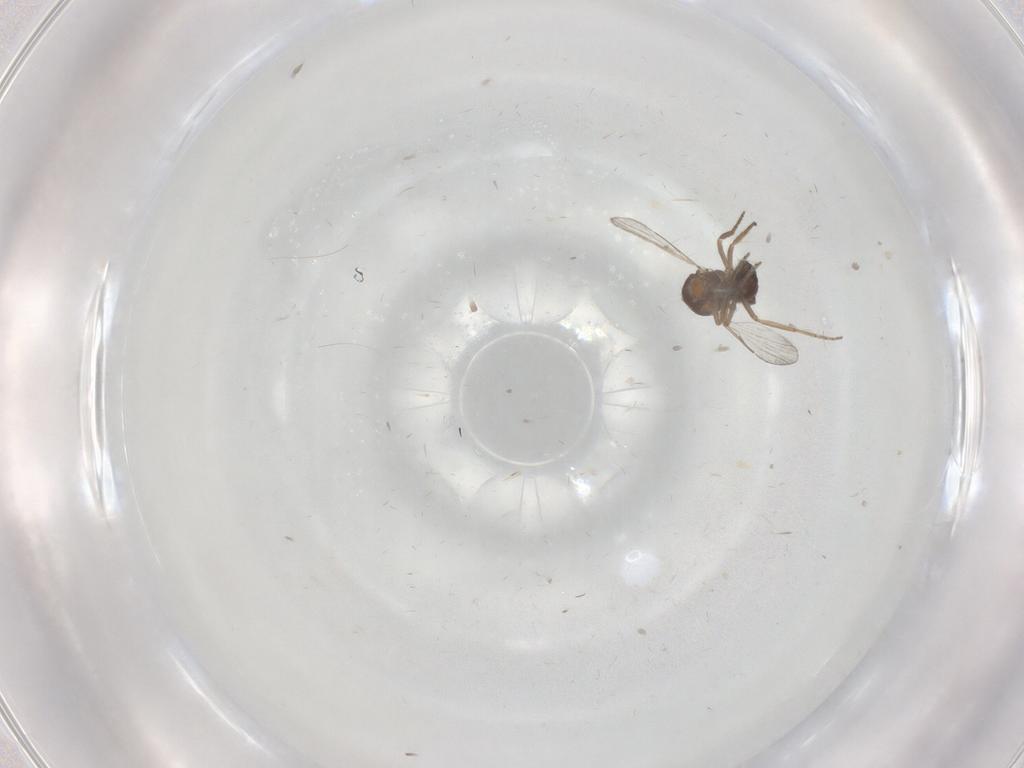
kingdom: Animalia
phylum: Arthropoda
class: Insecta
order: Diptera
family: Ceratopogonidae
